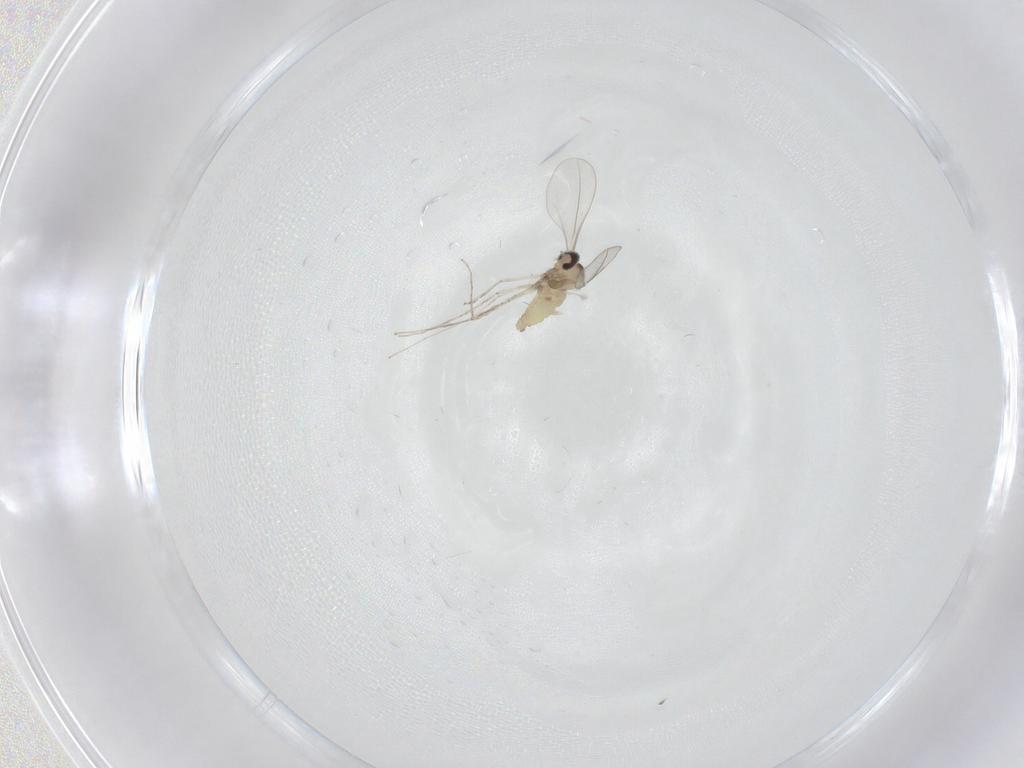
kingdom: Animalia
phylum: Arthropoda
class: Insecta
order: Diptera
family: Cecidomyiidae
